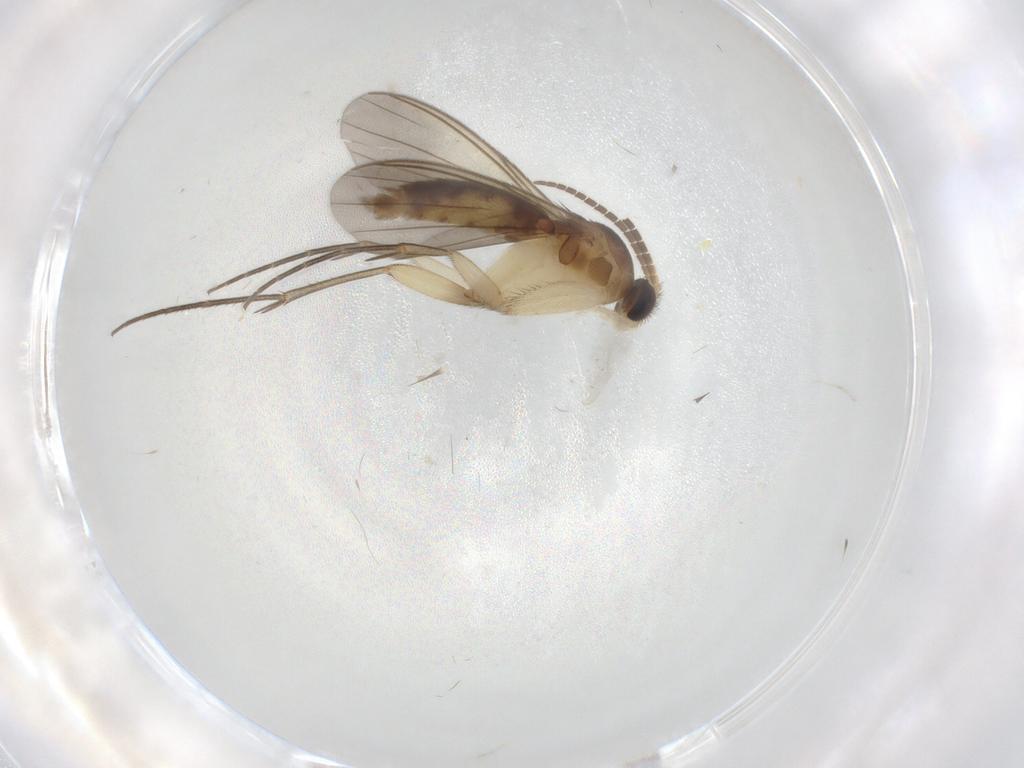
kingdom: Animalia
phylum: Arthropoda
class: Insecta
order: Diptera
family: Mycetophilidae
